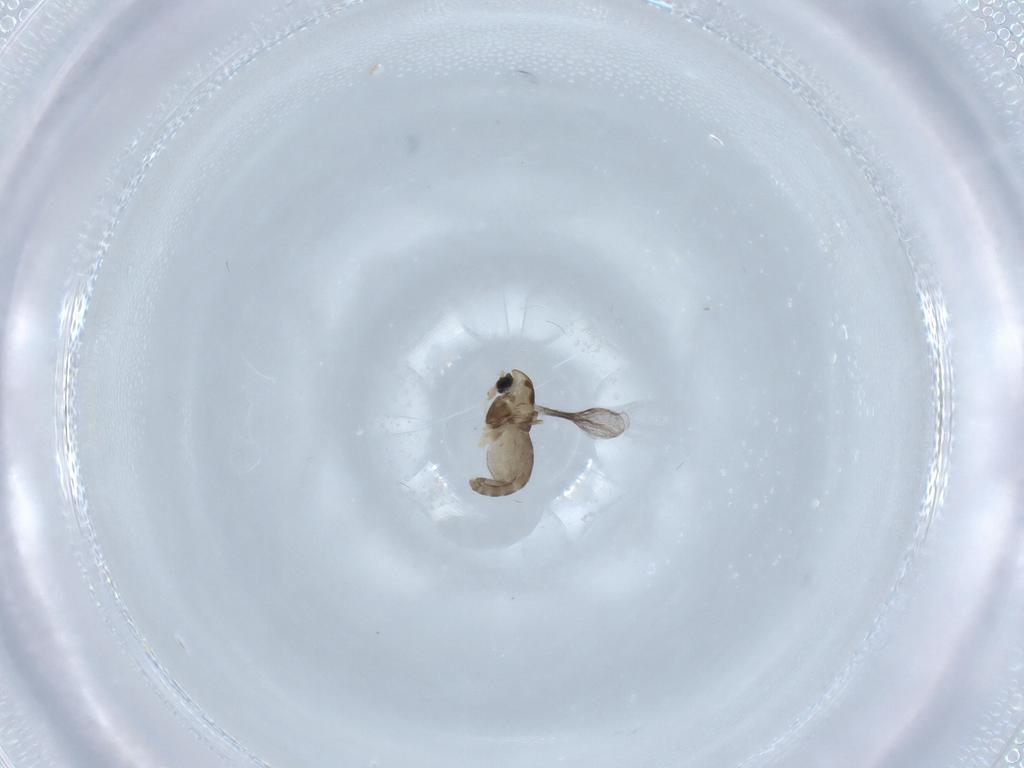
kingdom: Animalia
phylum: Arthropoda
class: Insecta
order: Diptera
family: Chironomidae
